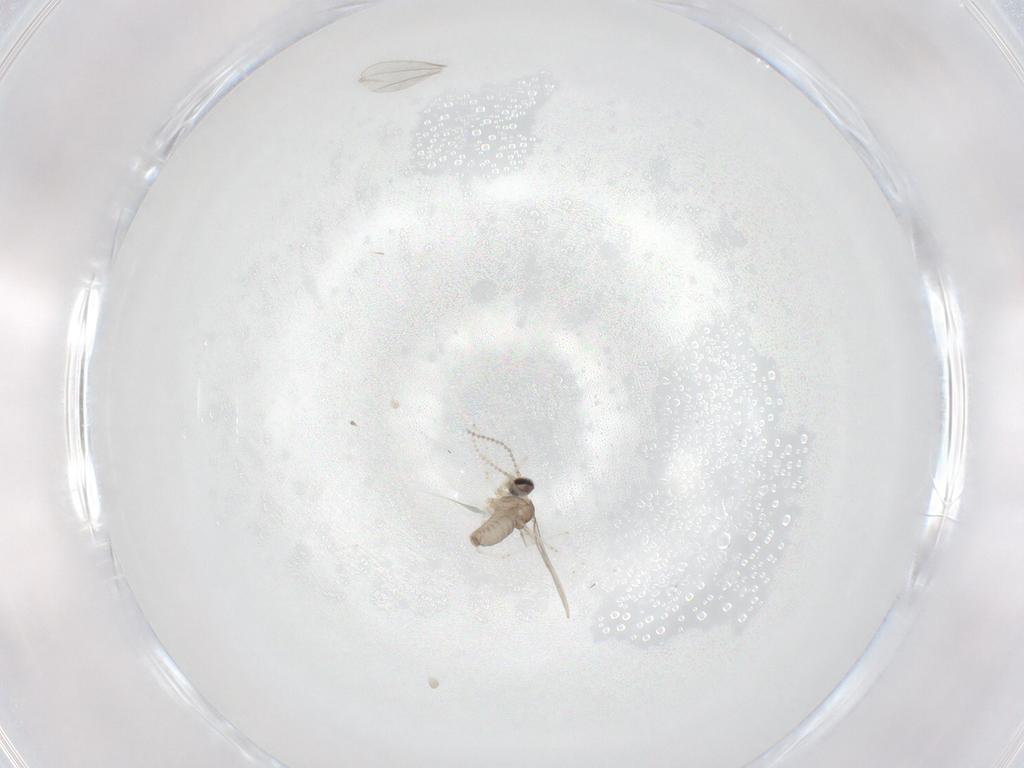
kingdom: Animalia
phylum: Arthropoda
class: Insecta
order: Diptera
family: Cecidomyiidae
